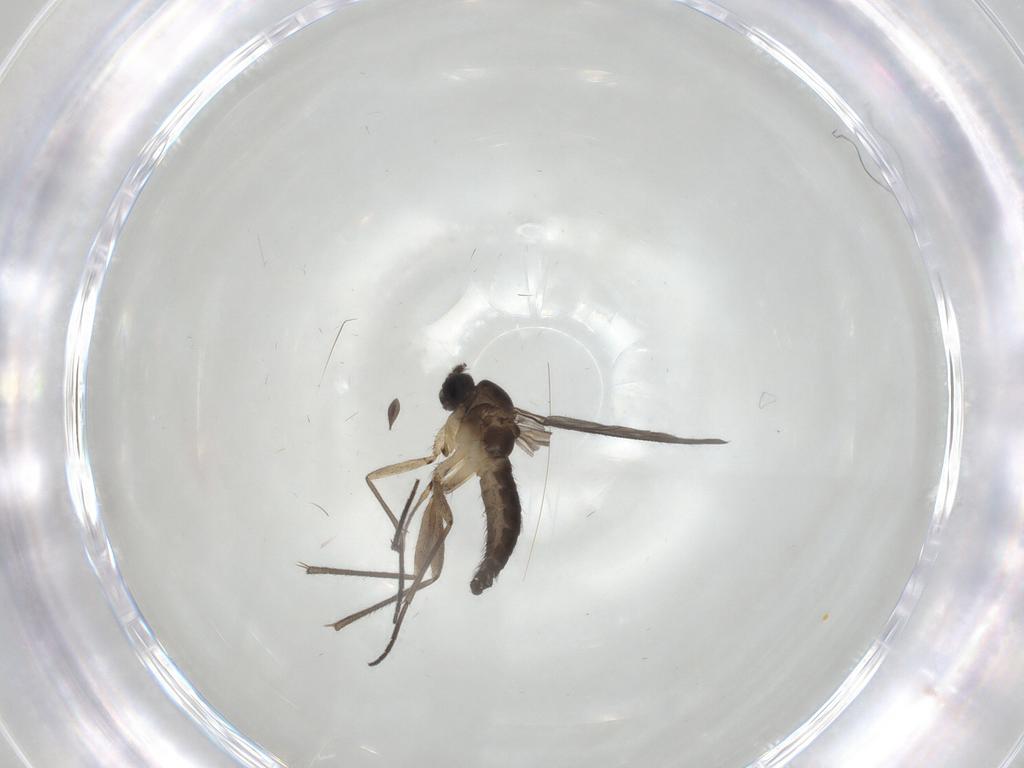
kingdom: Animalia
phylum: Arthropoda
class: Insecta
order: Diptera
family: Sciaridae
